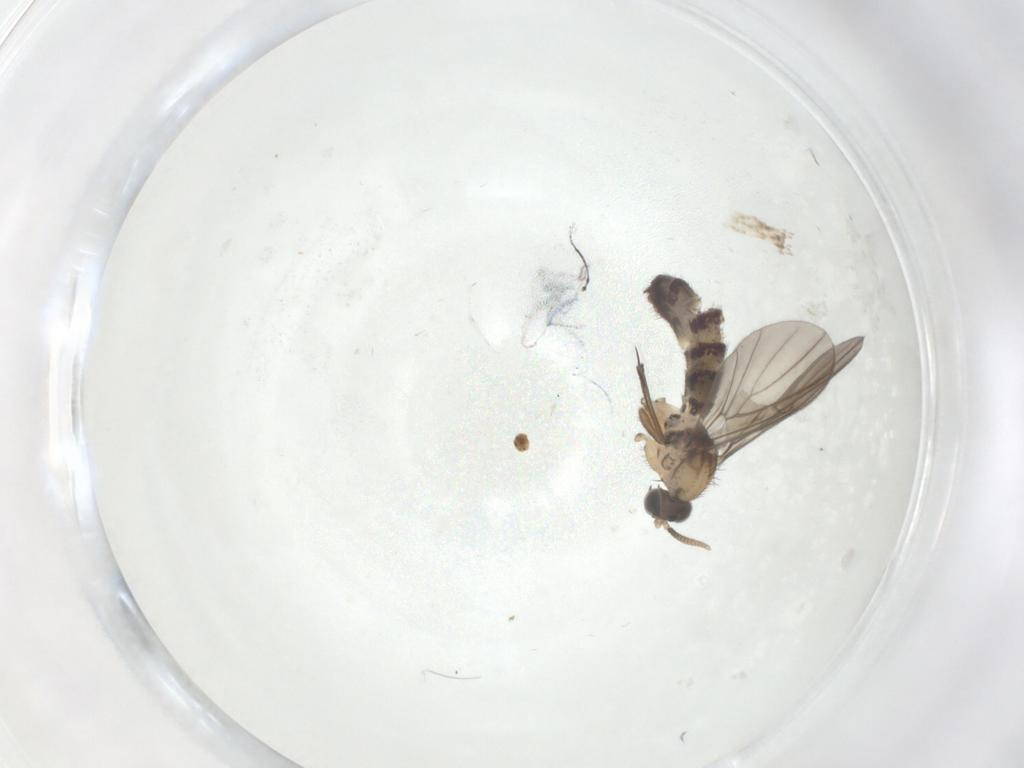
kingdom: Animalia
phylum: Arthropoda
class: Insecta
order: Diptera
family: Keroplatidae
